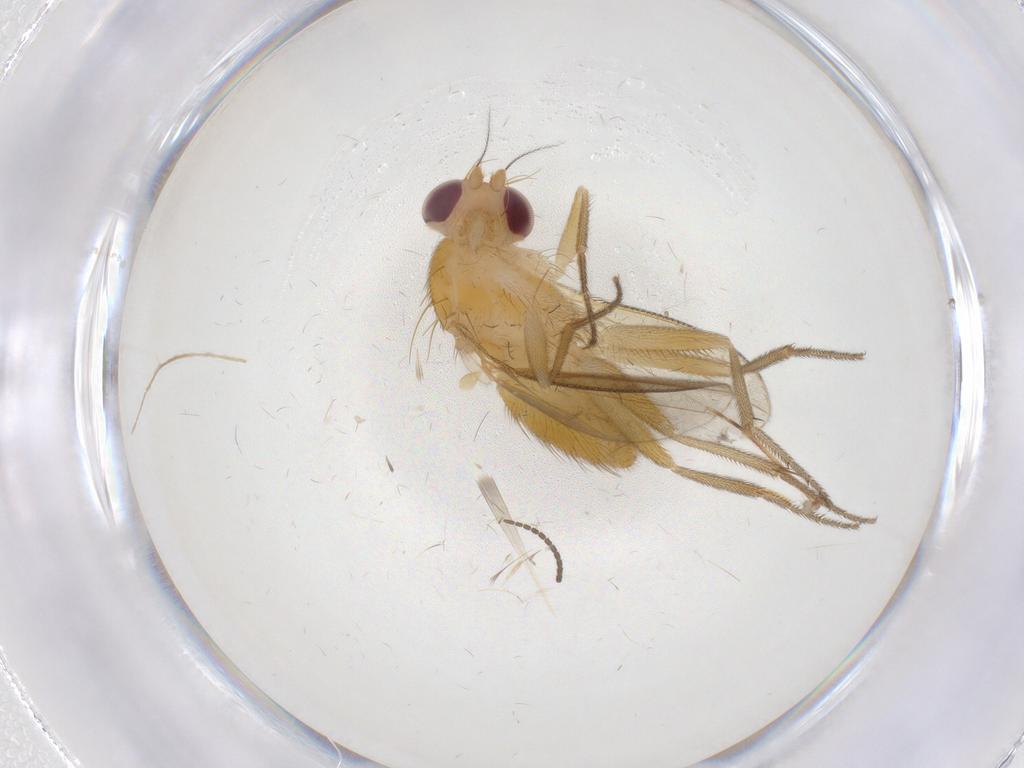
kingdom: Animalia
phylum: Arthropoda
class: Insecta
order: Diptera
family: Clusiidae
